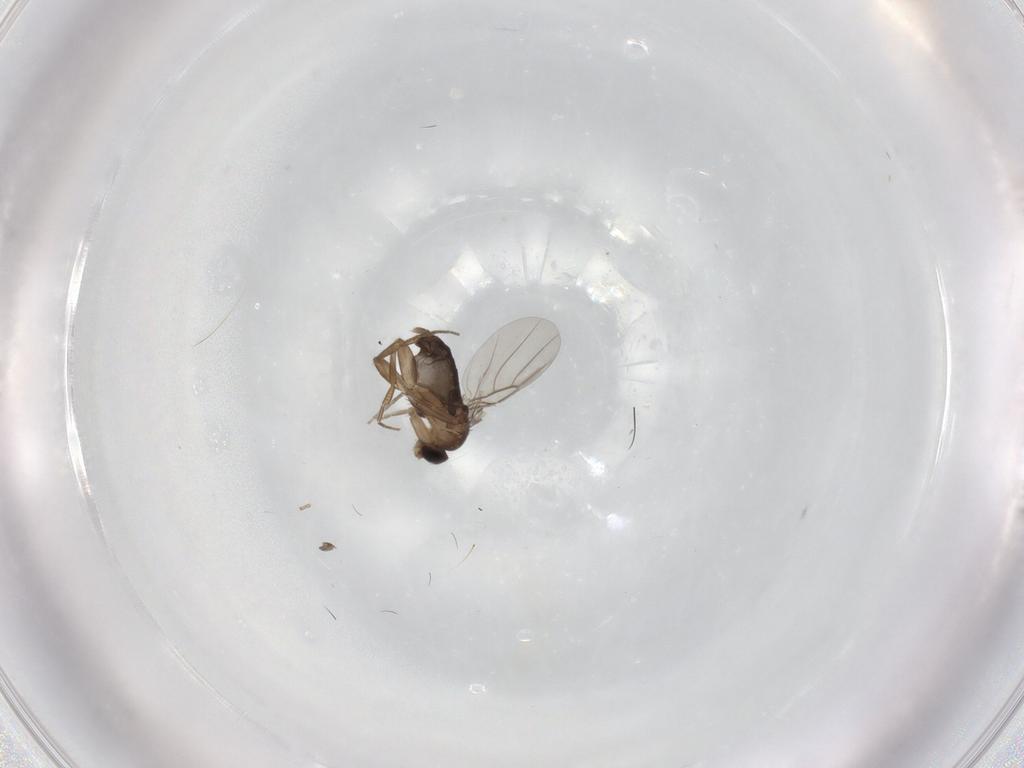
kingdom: Animalia
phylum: Arthropoda
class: Insecta
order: Diptera
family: Phoridae
